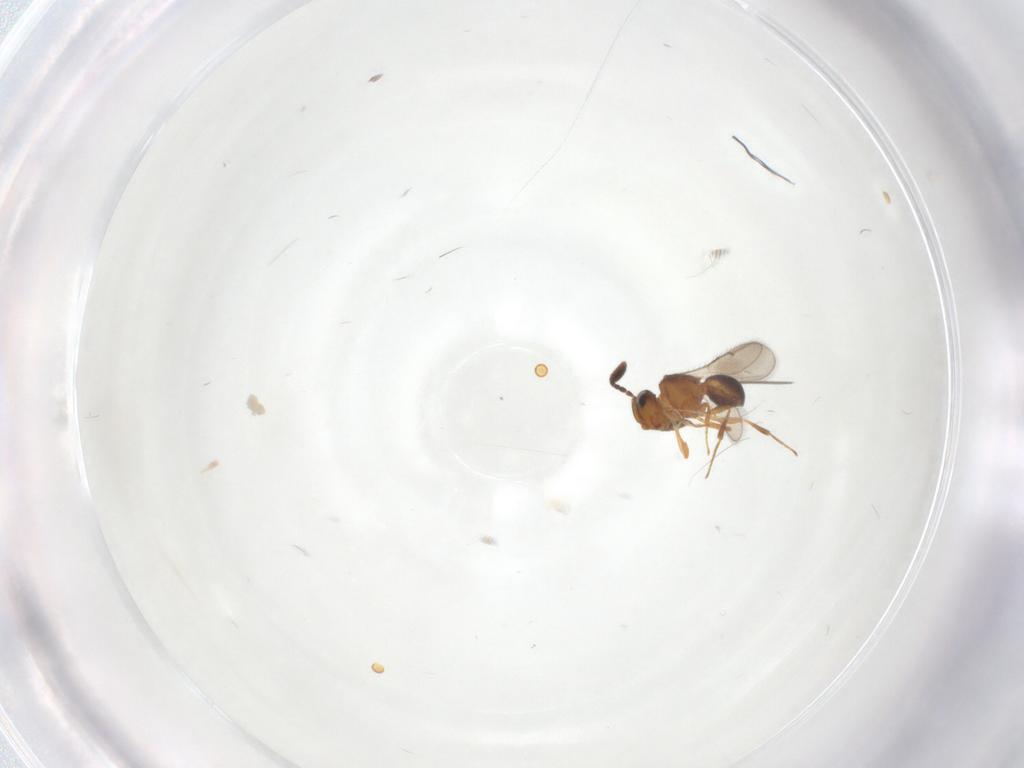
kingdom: Animalia
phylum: Arthropoda
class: Insecta
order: Hymenoptera
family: Scelionidae
